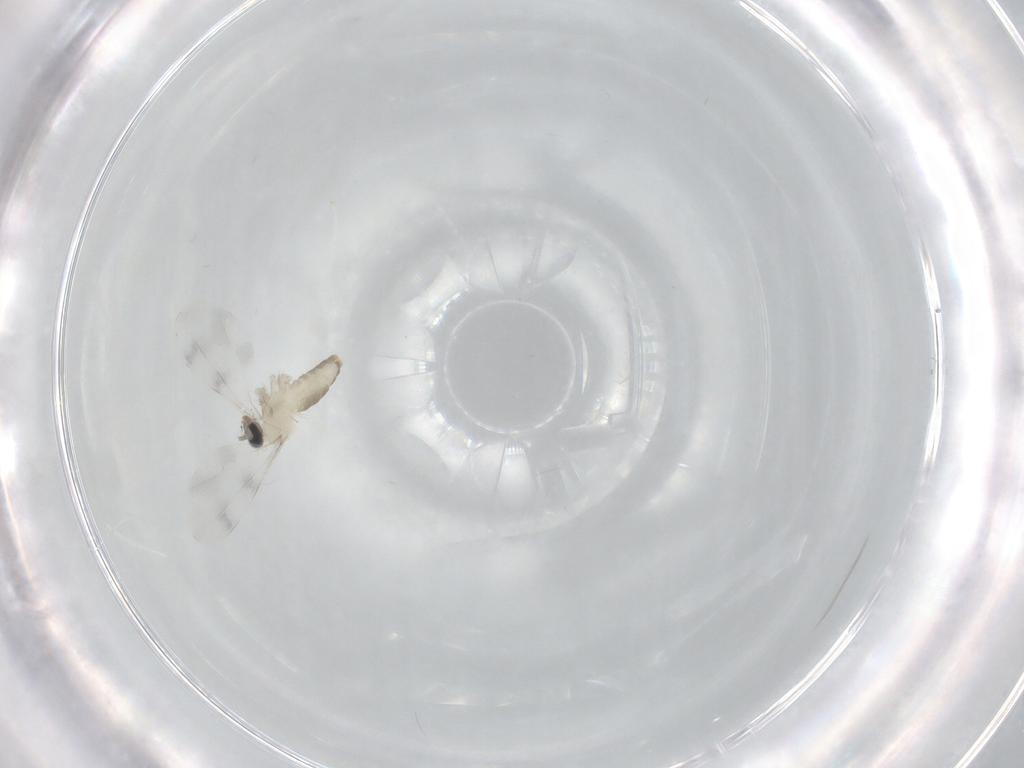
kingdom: Animalia
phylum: Arthropoda
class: Insecta
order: Diptera
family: Cecidomyiidae
